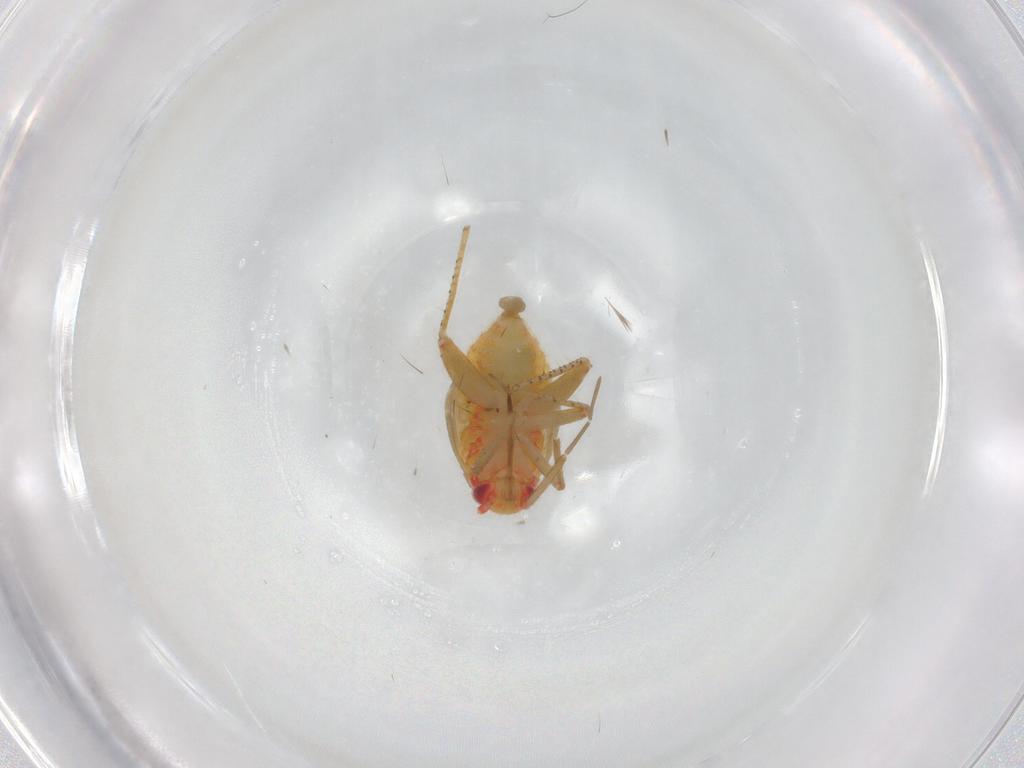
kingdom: Animalia
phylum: Arthropoda
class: Insecta
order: Hemiptera
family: Miridae
